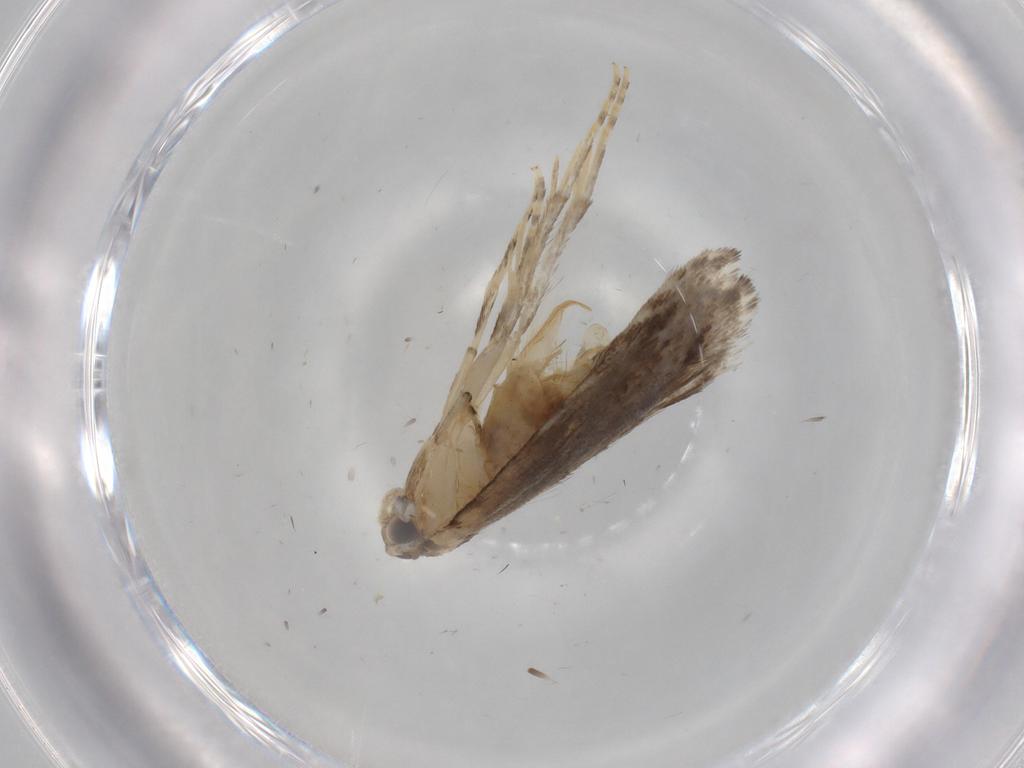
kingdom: Animalia
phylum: Arthropoda
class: Insecta
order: Lepidoptera
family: Tineidae
